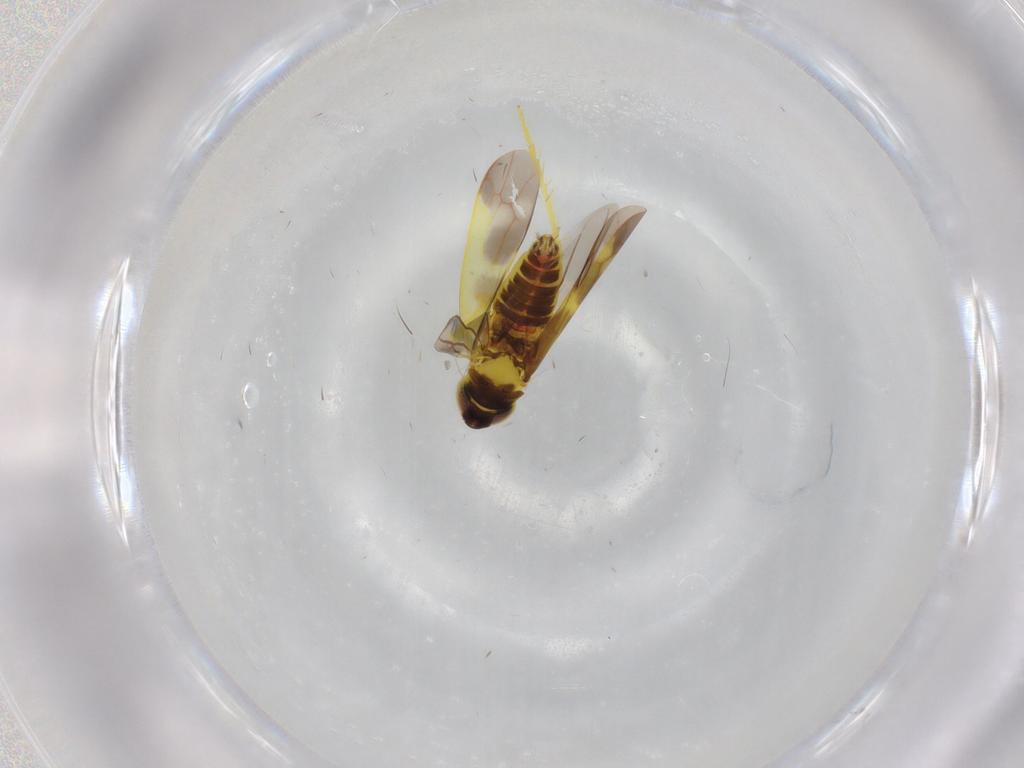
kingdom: Animalia
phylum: Arthropoda
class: Insecta
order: Hemiptera
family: Cicadellidae
